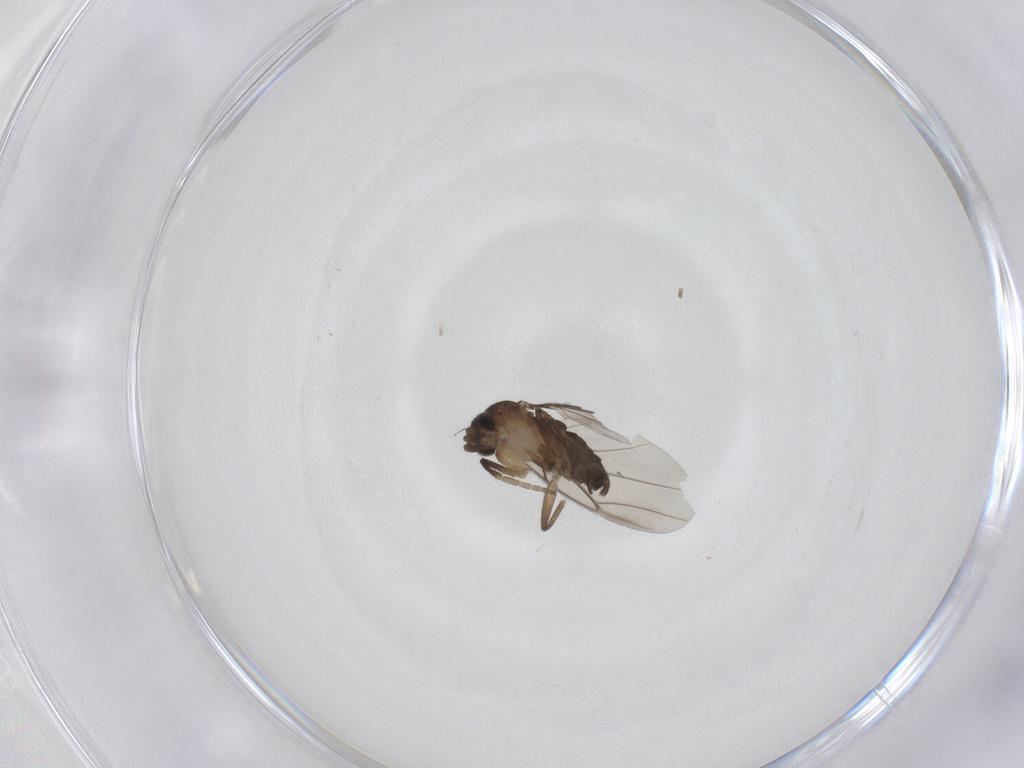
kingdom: Animalia
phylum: Arthropoda
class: Insecta
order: Diptera
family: Phoridae
